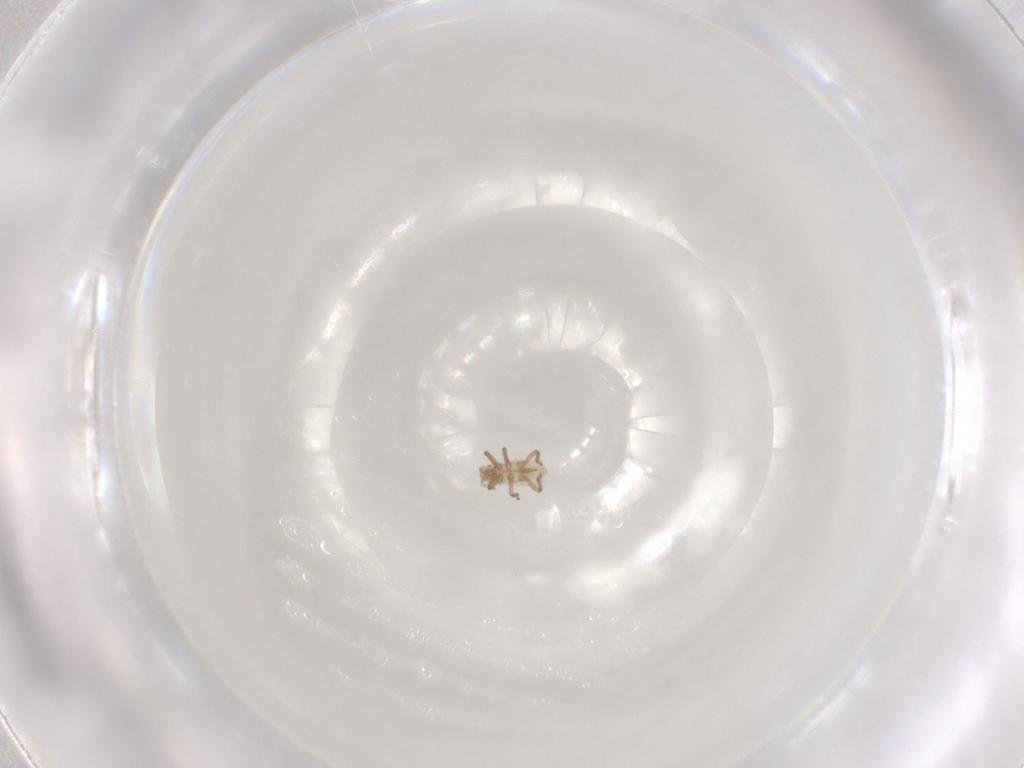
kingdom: Animalia
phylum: Arthropoda
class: Insecta
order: Hemiptera
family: Aphididae
